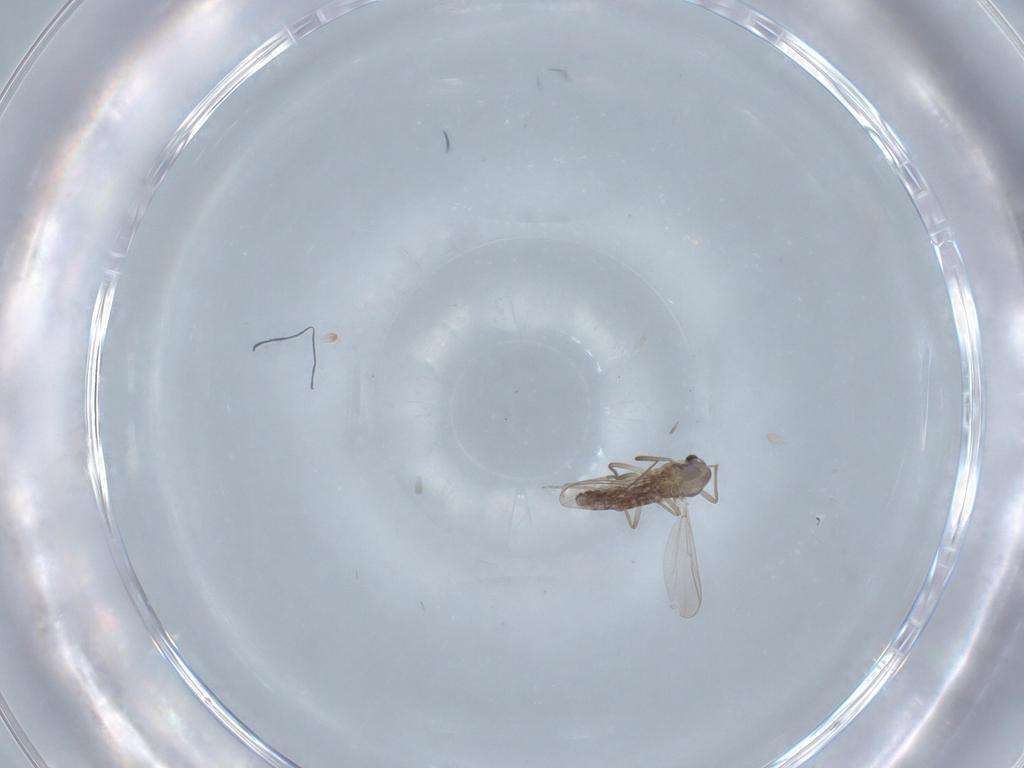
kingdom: Animalia
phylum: Arthropoda
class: Insecta
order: Diptera
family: Chironomidae
